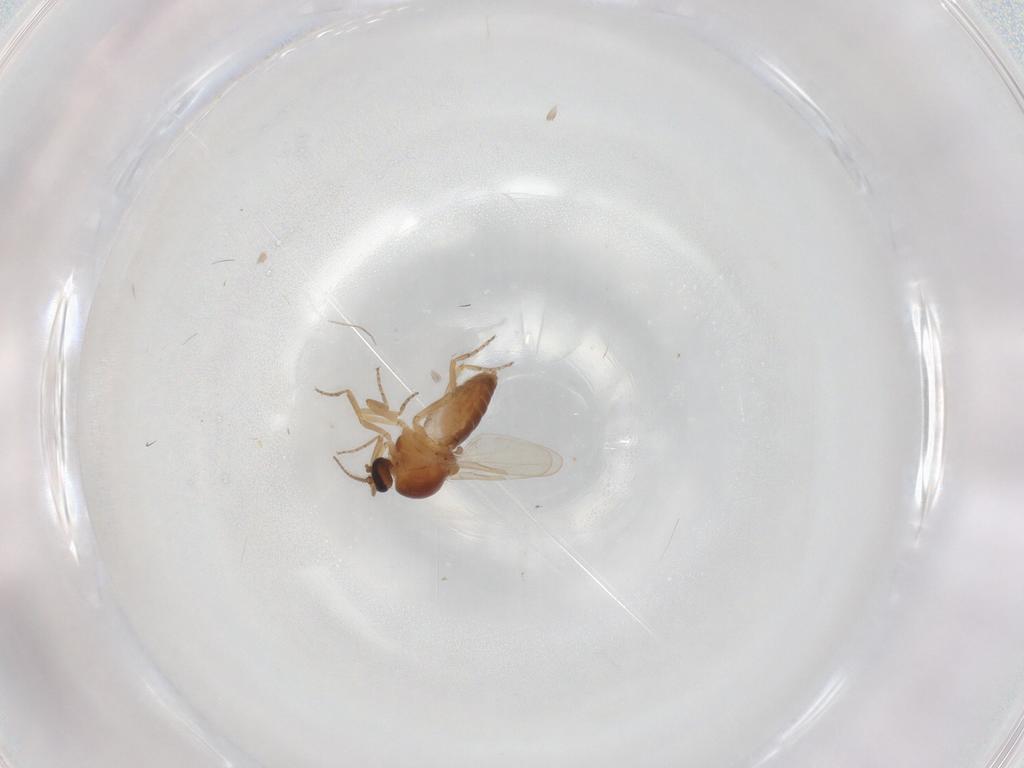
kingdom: Animalia
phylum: Arthropoda
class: Insecta
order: Diptera
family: Ceratopogonidae
